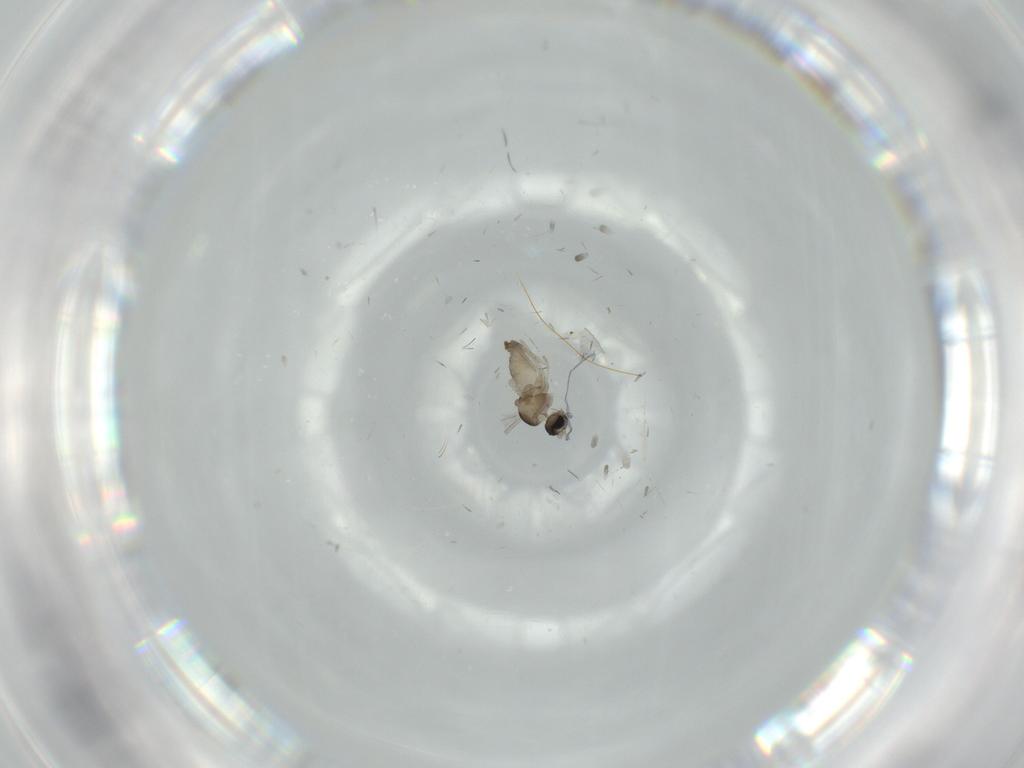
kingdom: Animalia
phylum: Arthropoda
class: Insecta
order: Diptera
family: Cecidomyiidae
